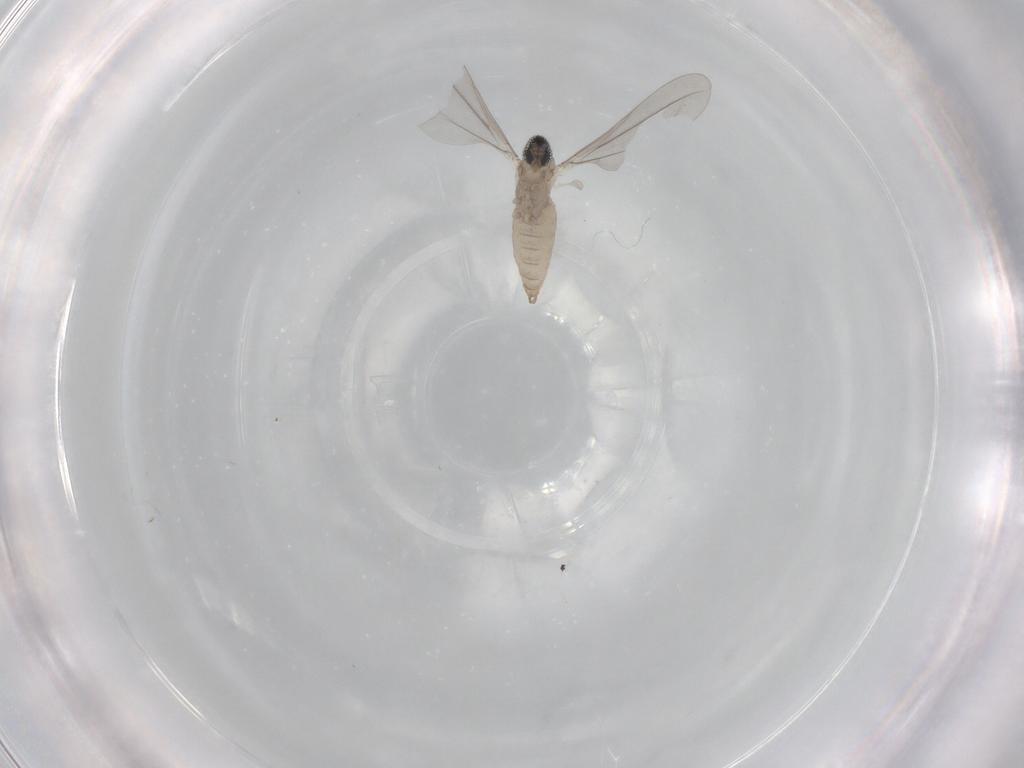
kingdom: Animalia
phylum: Arthropoda
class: Insecta
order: Diptera
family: Cecidomyiidae
